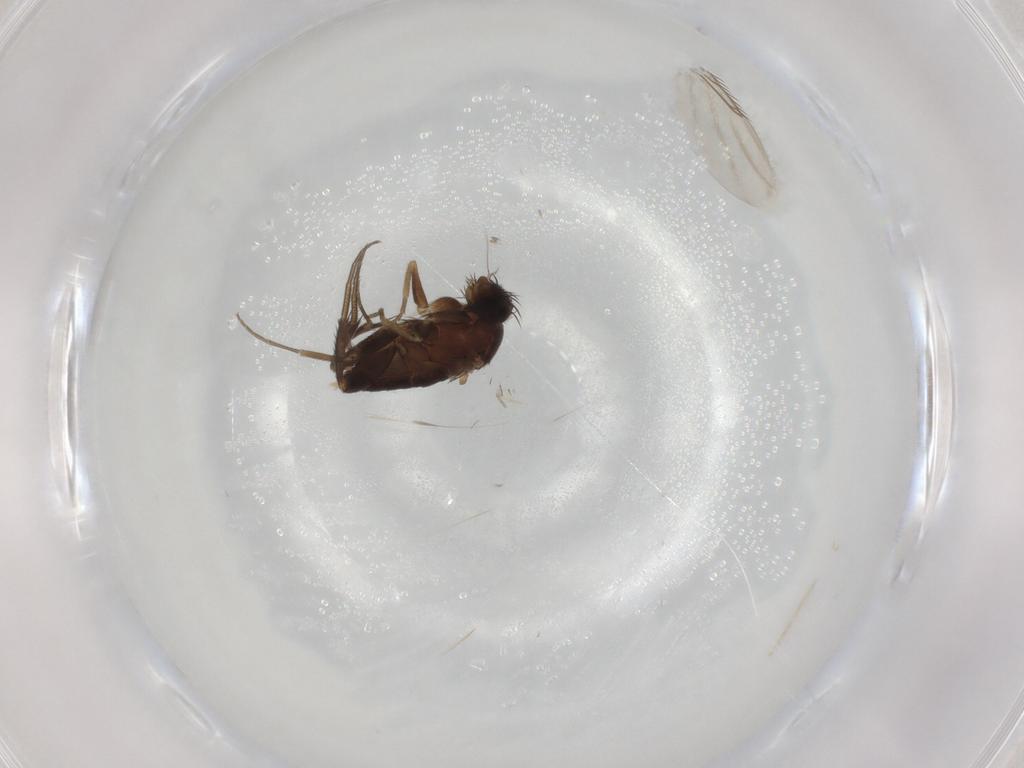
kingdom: Animalia
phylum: Arthropoda
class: Insecta
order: Diptera
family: Phoridae
